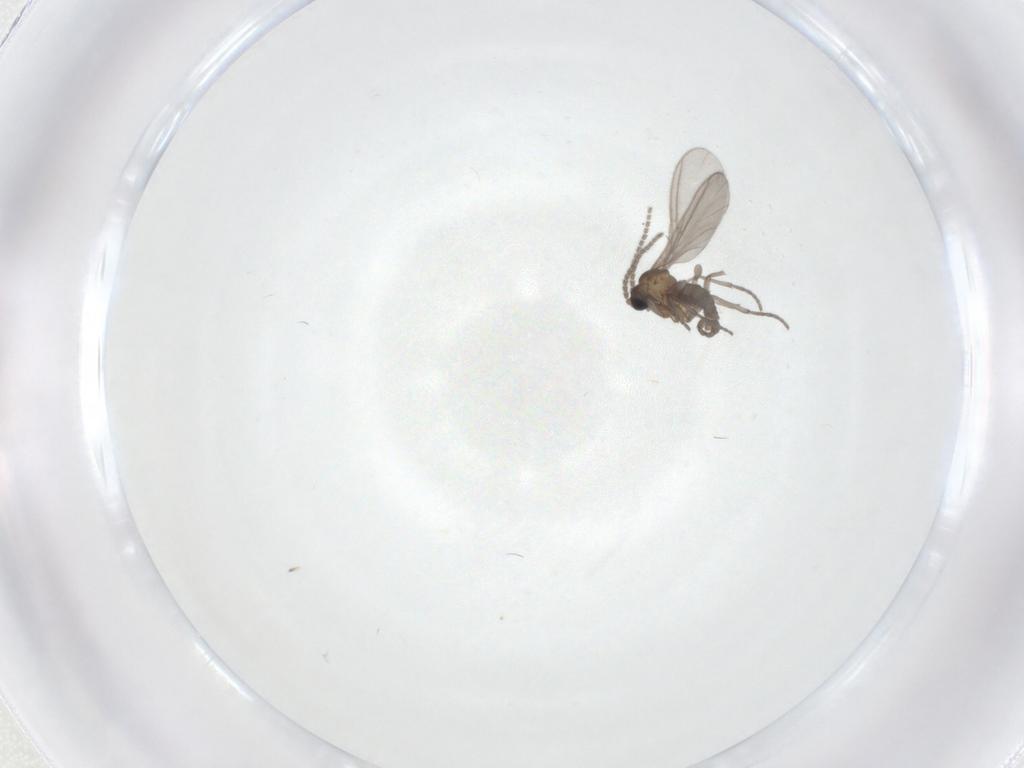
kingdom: Animalia
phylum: Arthropoda
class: Insecta
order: Diptera
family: Sciaridae
